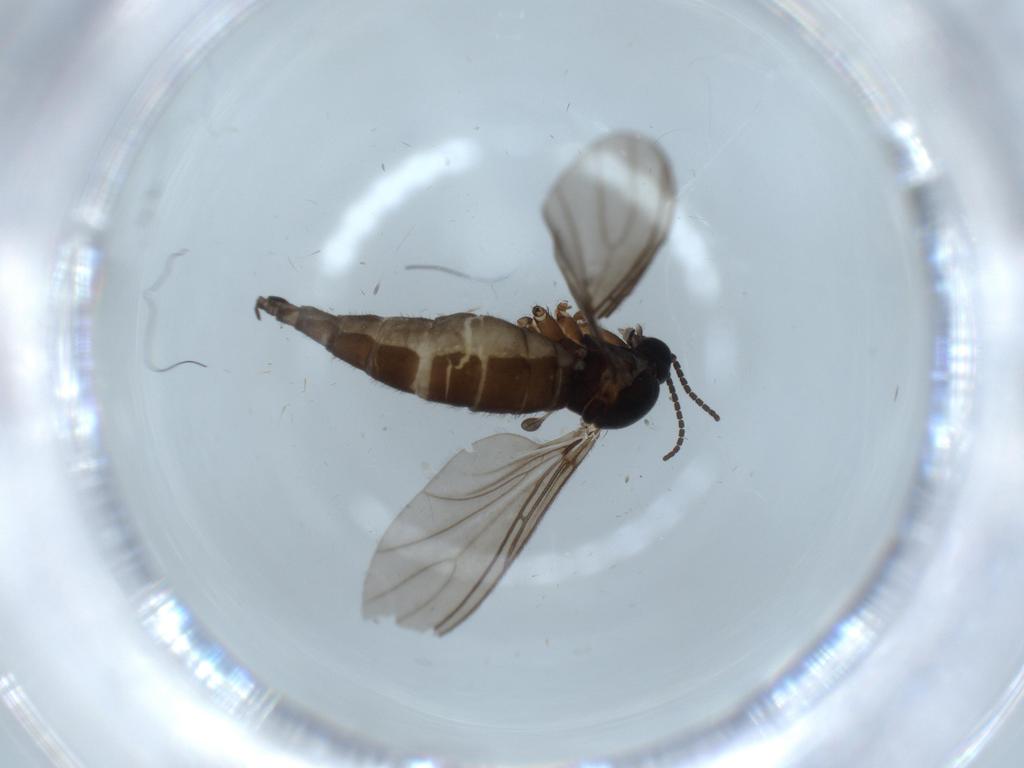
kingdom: Animalia
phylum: Arthropoda
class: Insecta
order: Diptera
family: Sciaridae
